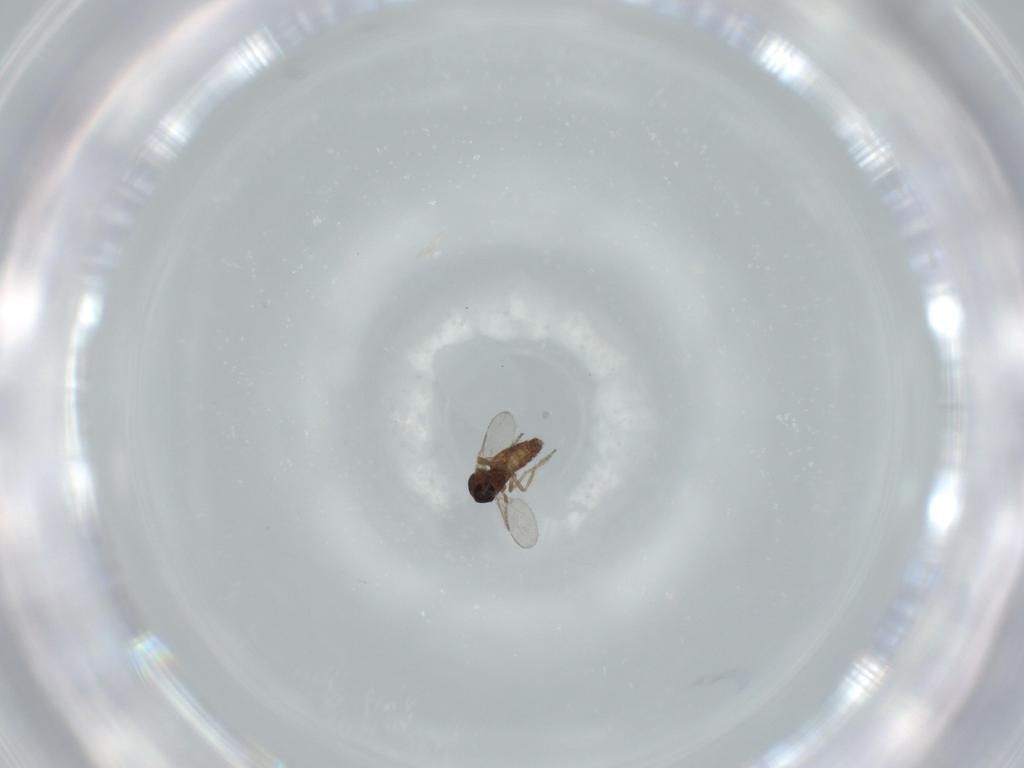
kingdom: Animalia
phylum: Arthropoda
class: Insecta
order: Diptera
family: Ceratopogonidae
